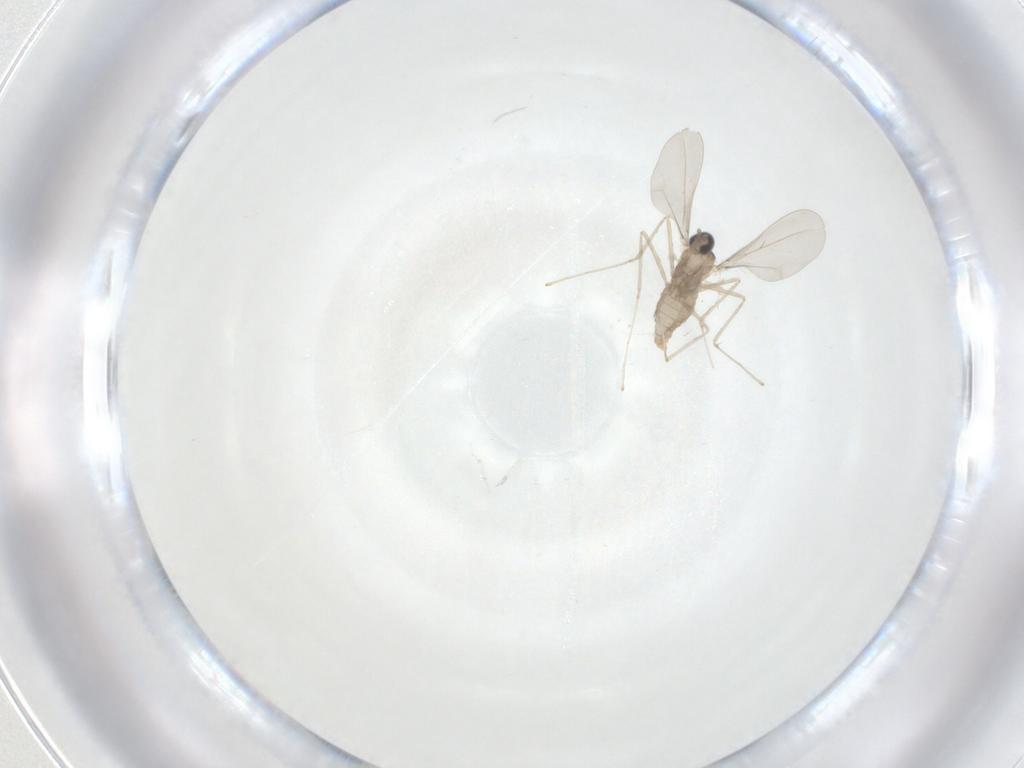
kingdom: Animalia
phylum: Arthropoda
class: Insecta
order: Diptera
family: Cecidomyiidae
